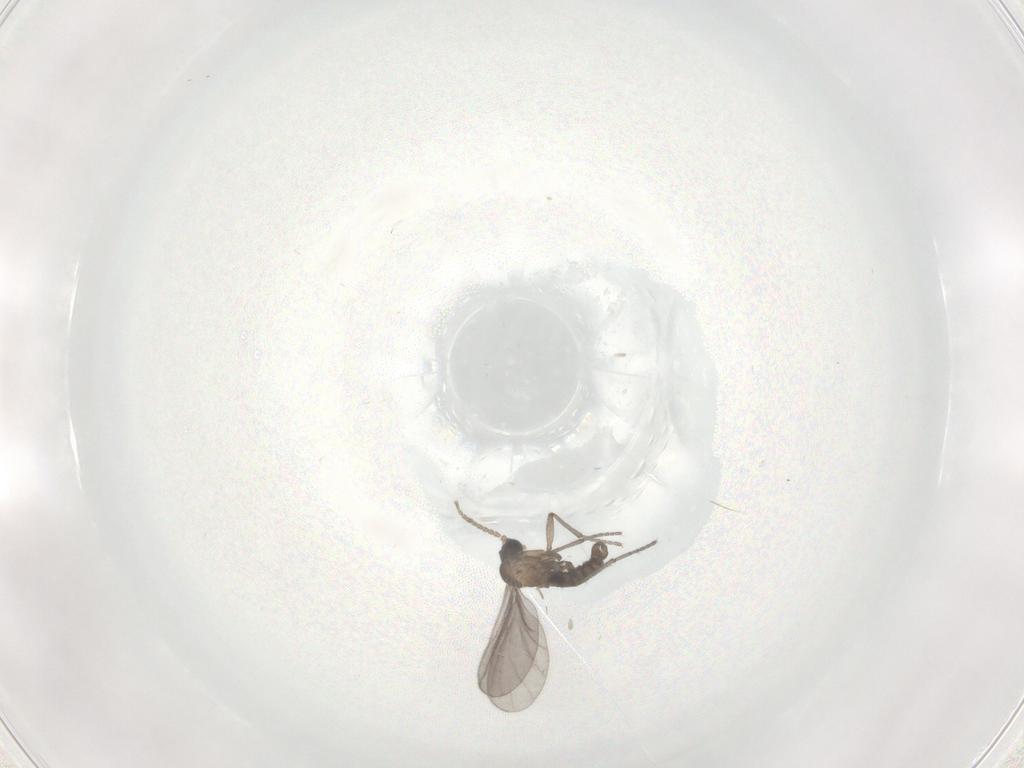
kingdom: Animalia
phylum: Arthropoda
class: Insecta
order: Diptera
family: Sciaridae
